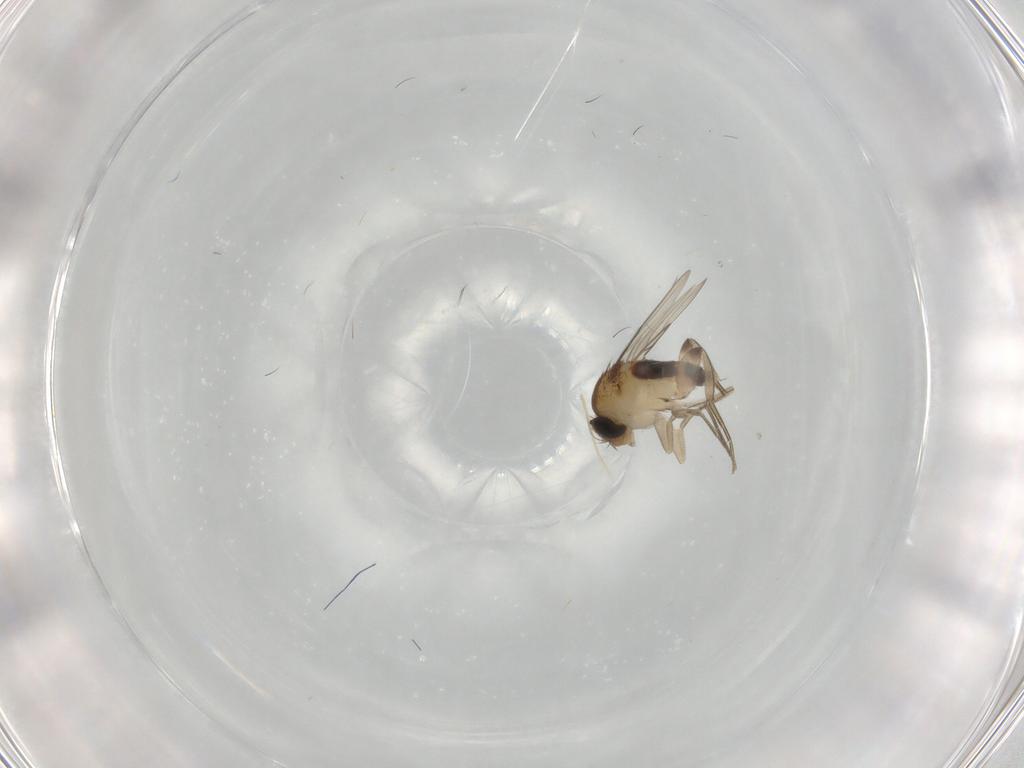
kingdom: Animalia
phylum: Arthropoda
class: Insecta
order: Diptera
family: Phoridae
